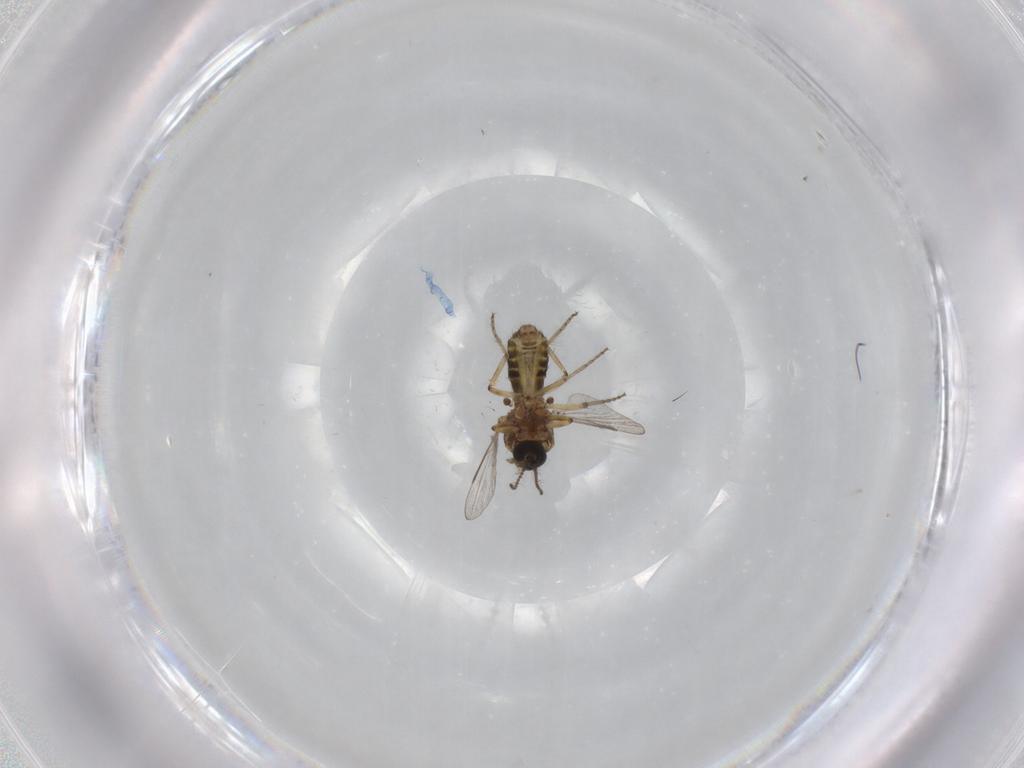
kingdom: Animalia
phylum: Arthropoda
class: Insecta
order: Diptera
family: Ceratopogonidae
